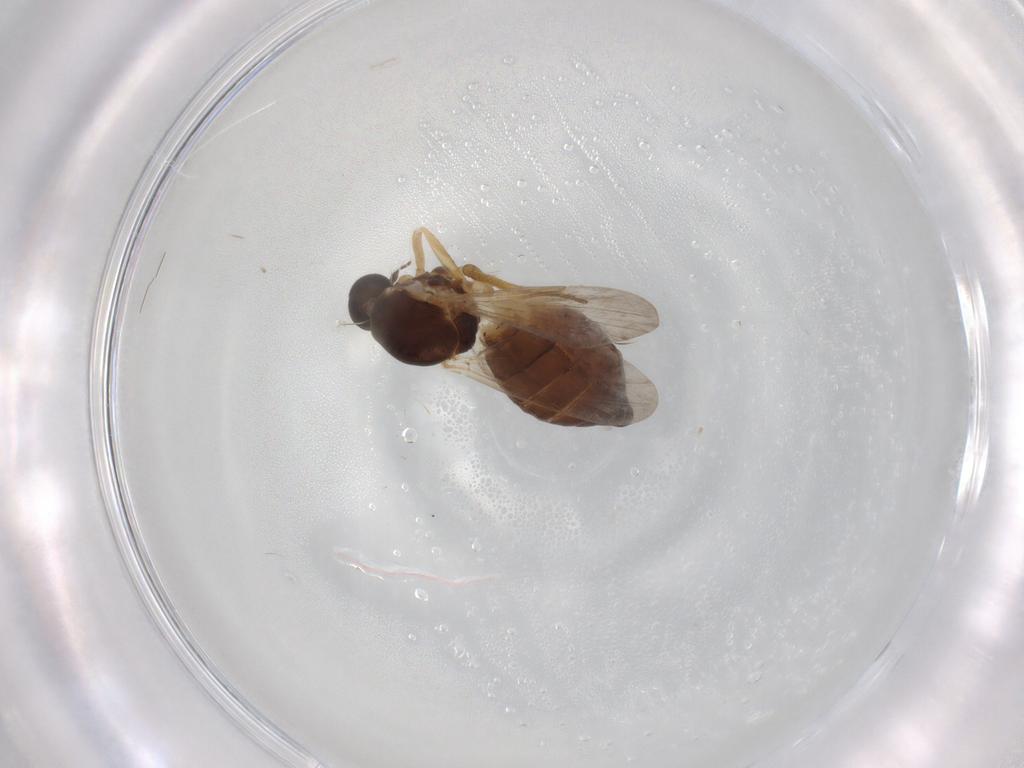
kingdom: Animalia
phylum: Arthropoda
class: Insecta
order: Diptera
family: Ceratopogonidae
